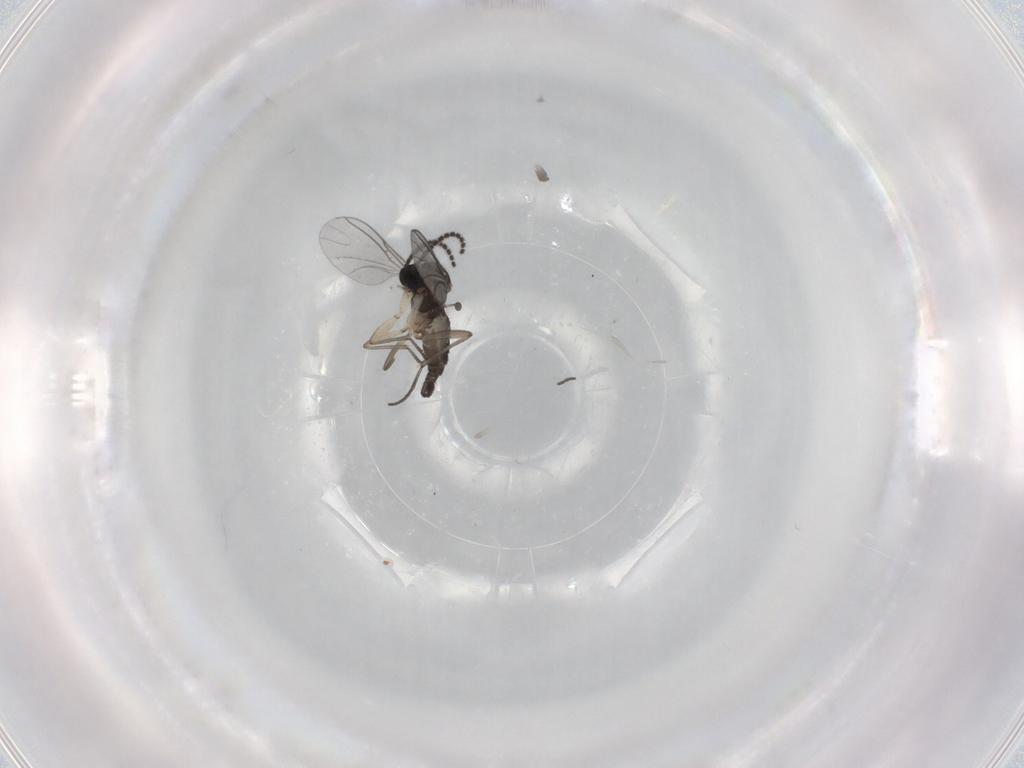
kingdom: Animalia
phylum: Arthropoda
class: Insecta
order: Diptera
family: Sciaridae
